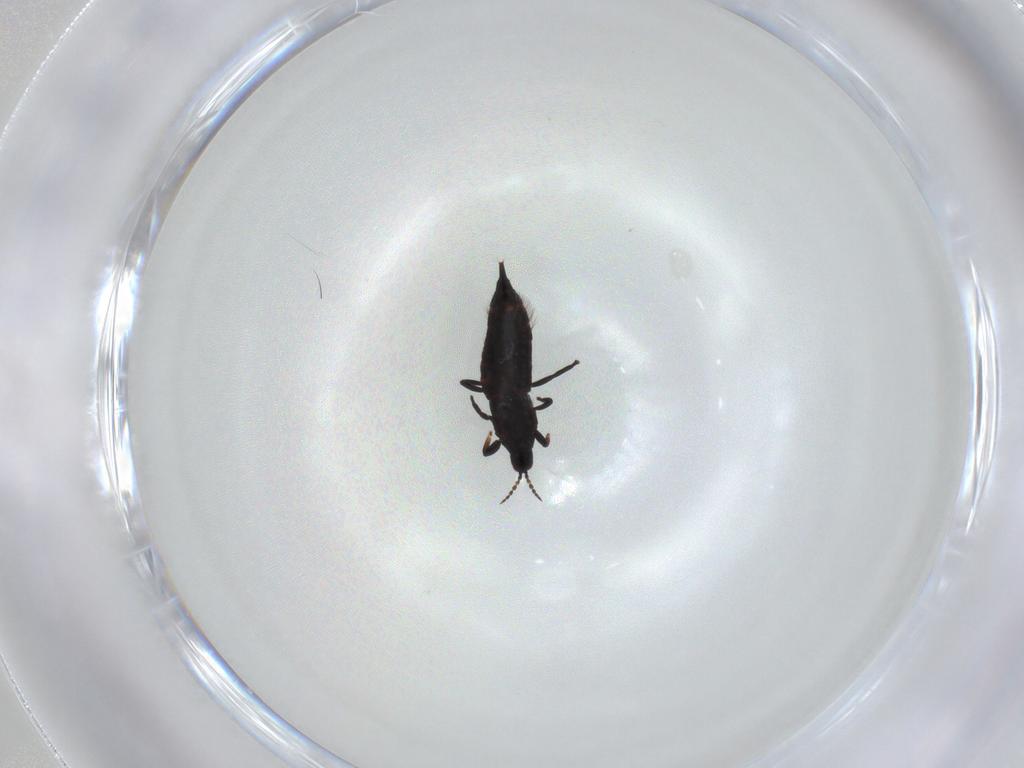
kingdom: Animalia
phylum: Arthropoda
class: Insecta
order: Thysanoptera
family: Phlaeothripidae
